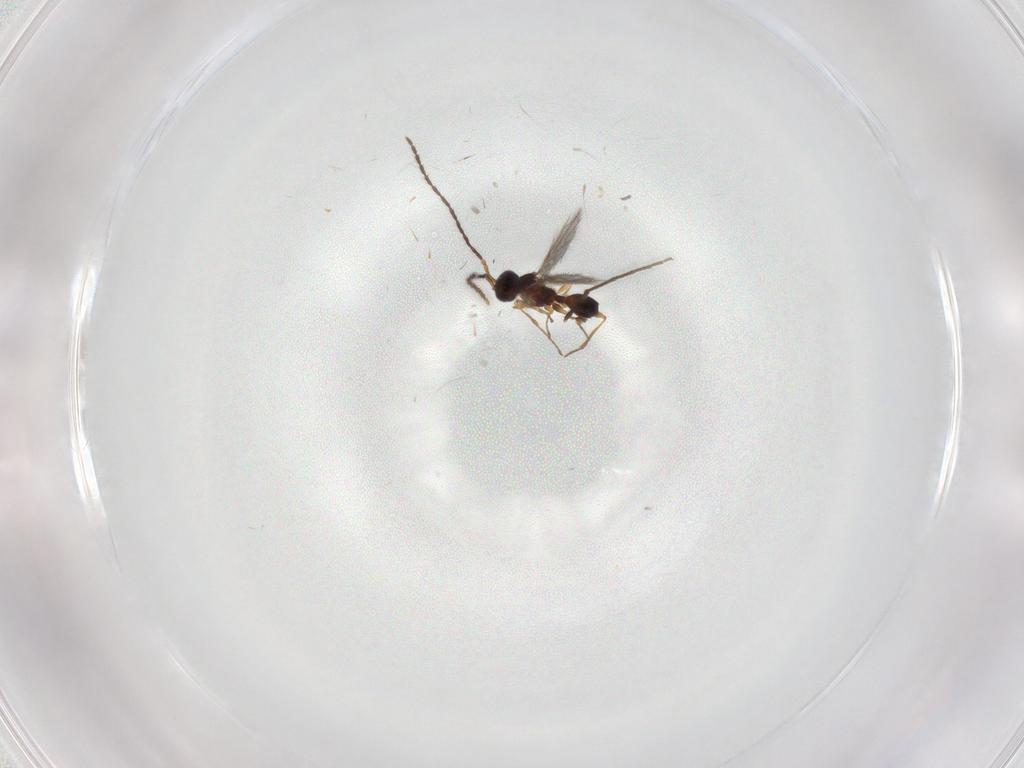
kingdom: Animalia
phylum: Arthropoda
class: Insecta
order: Hymenoptera
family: Diapriidae
